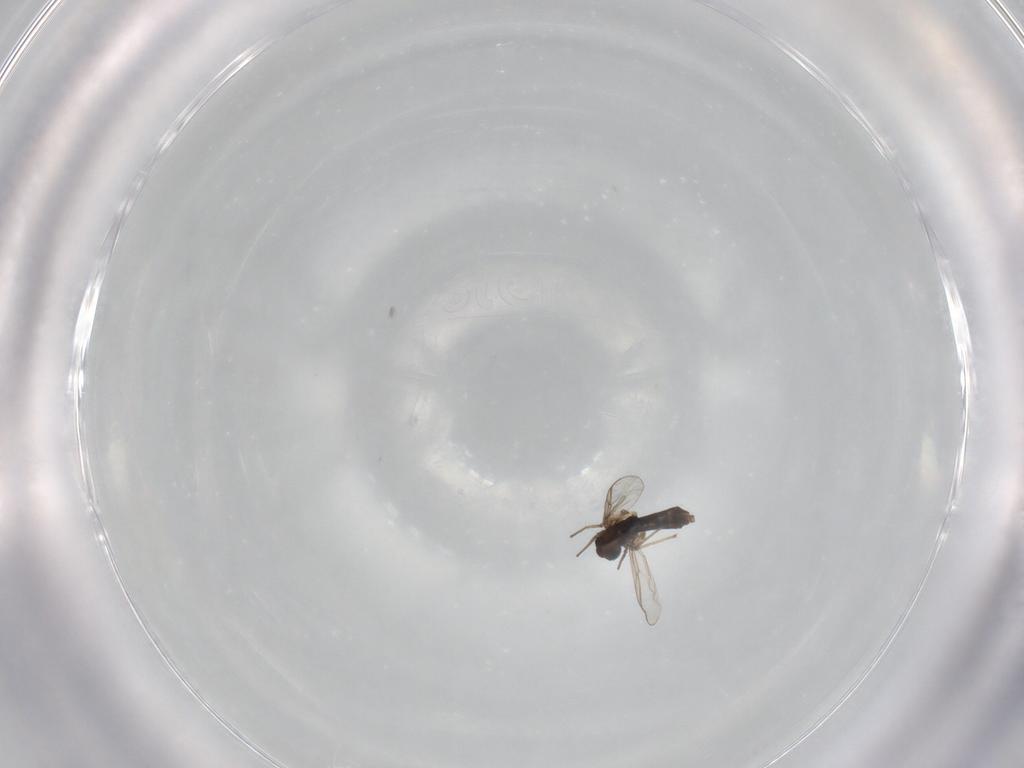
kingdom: Animalia
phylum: Arthropoda
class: Insecta
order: Diptera
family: Chironomidae
